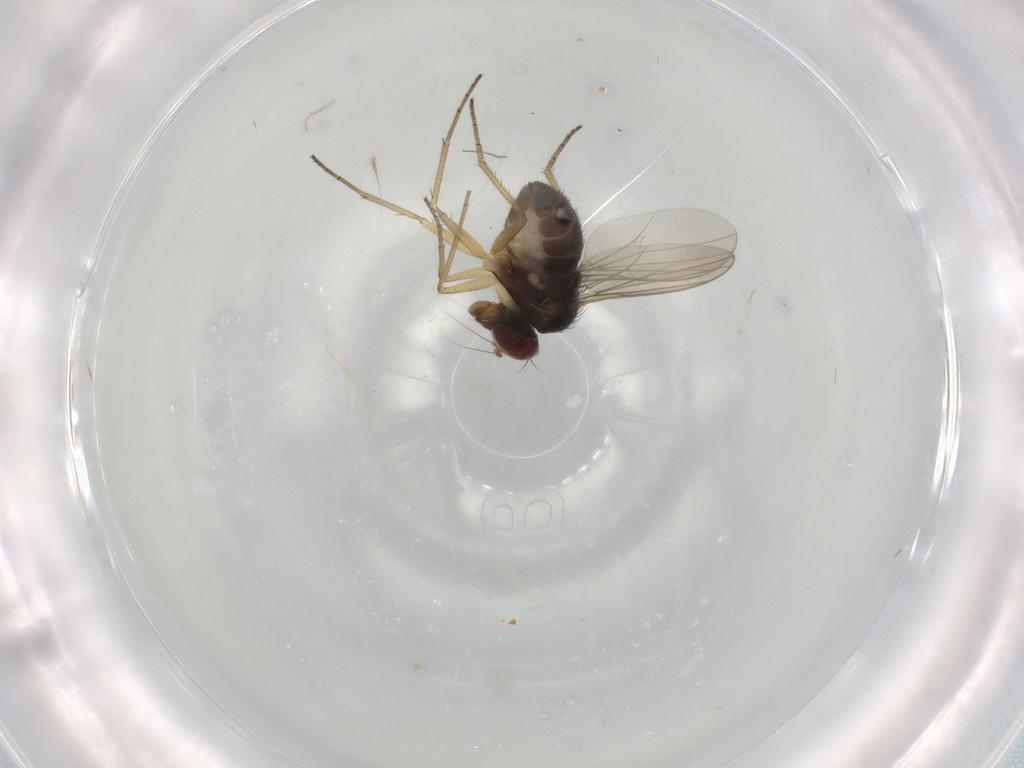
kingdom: Animalia
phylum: Arthropoda
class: Insecta
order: Diptera
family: Dolichopodidae
